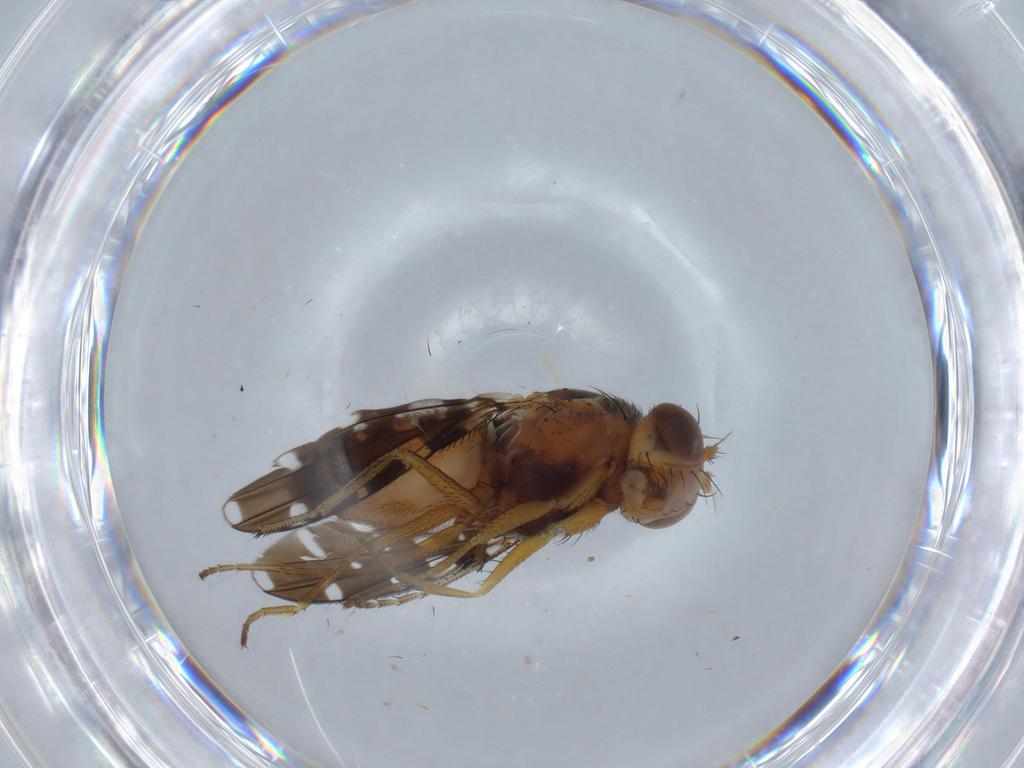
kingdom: Animalia
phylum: Arthropoda
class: Insecta
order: Diptera
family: Ephydridae
